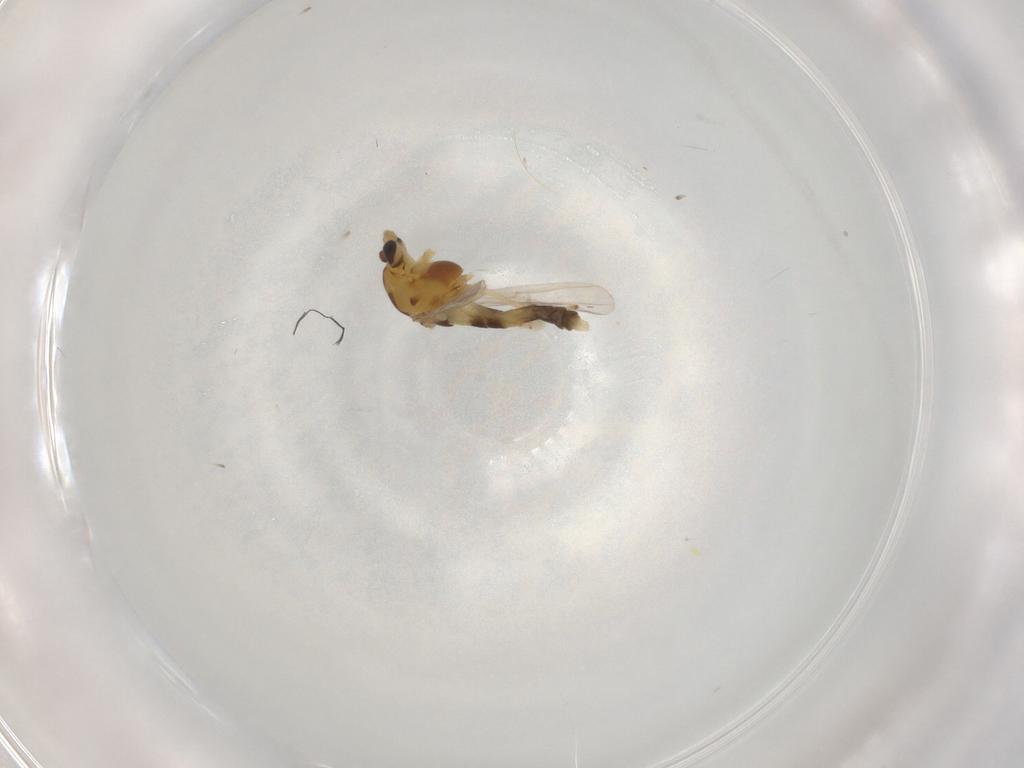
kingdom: Animalia
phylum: Arthropoda
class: Insecta
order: Diptera
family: Chironomidae
